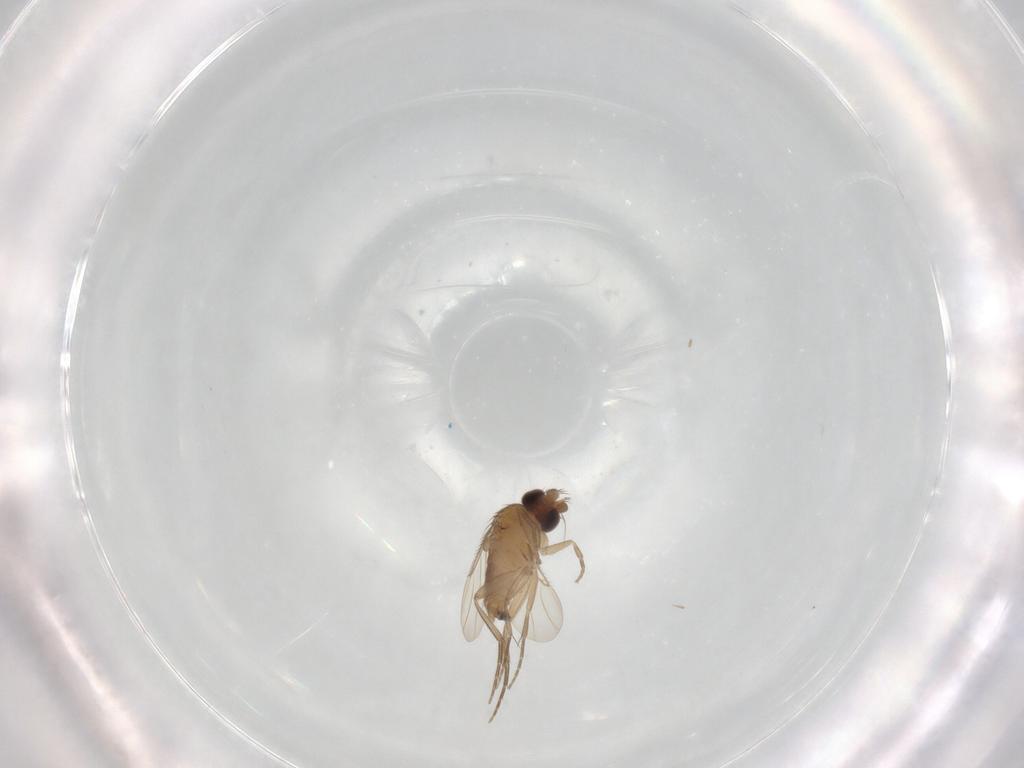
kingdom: Animalia
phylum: Arthropoda
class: Insecta
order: Diptera
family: Phoridae
